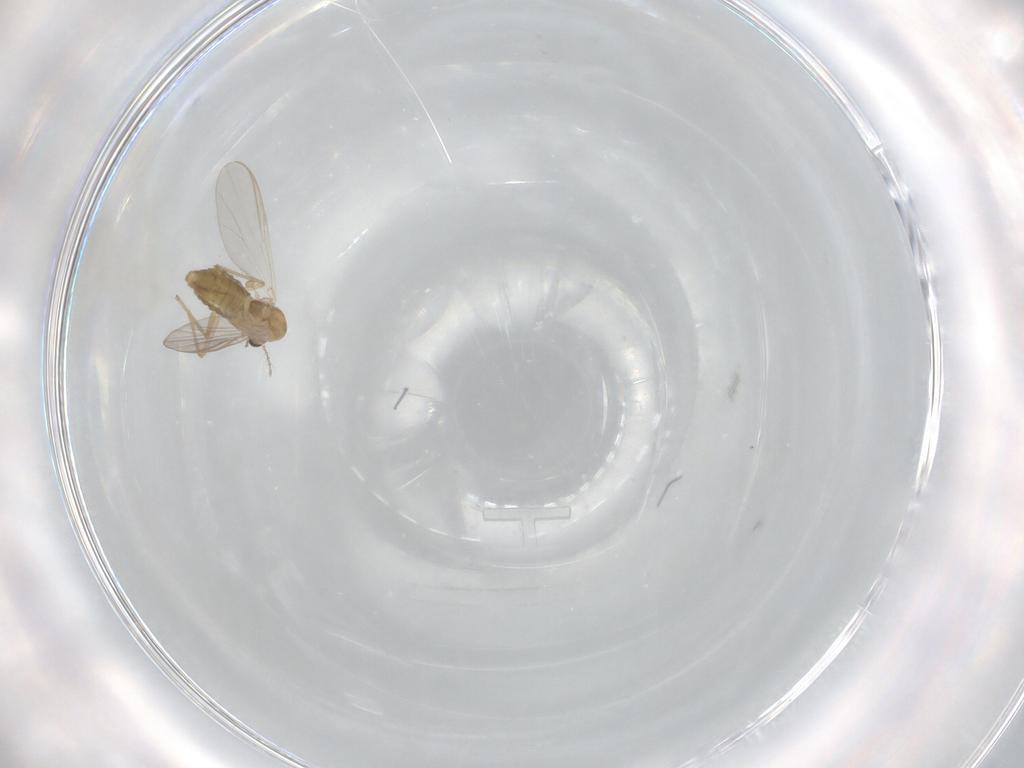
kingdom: Animalia
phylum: Arthropoda
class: Insecta
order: Diptera
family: Chironomidae
